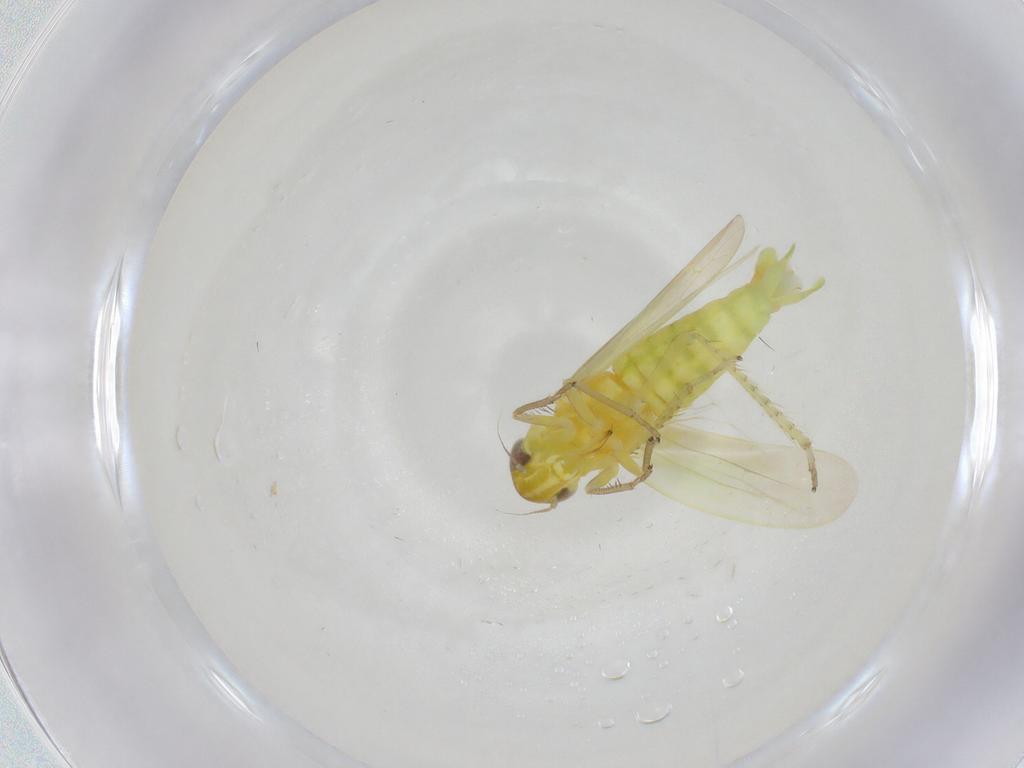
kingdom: Animalia
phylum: Arthropoda
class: Insecta
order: Hemiptera
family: Cicadellidae
